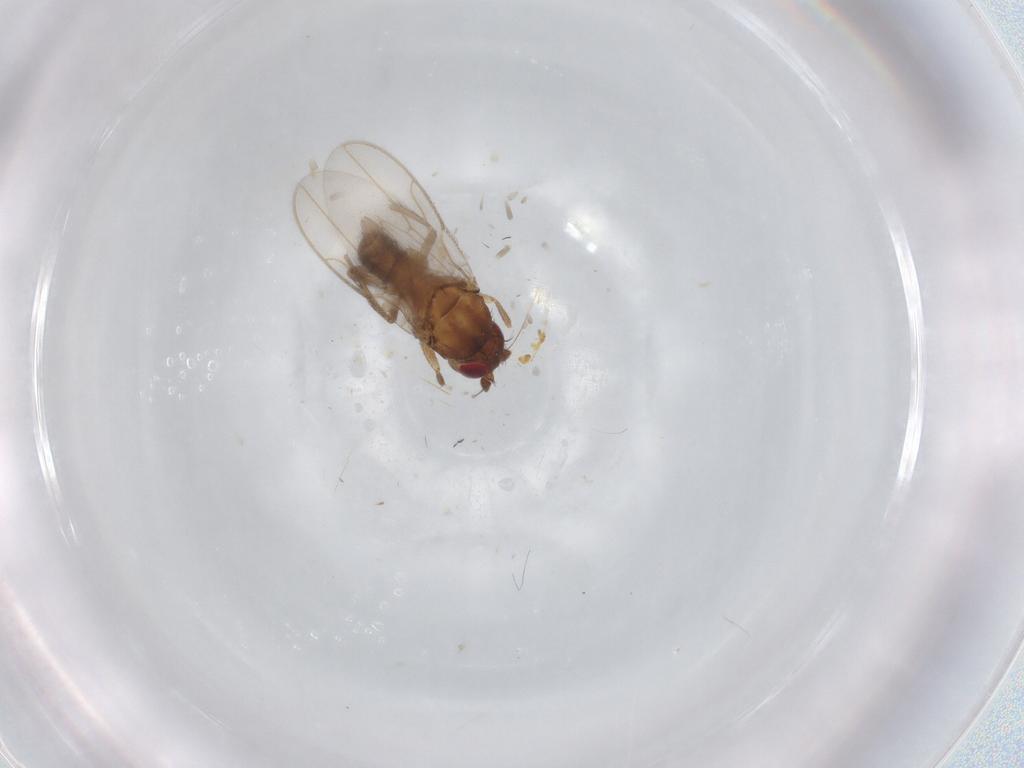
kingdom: Animalia
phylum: Arthropoda
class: Insecta
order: Diptera
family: Sphaeroceridae
